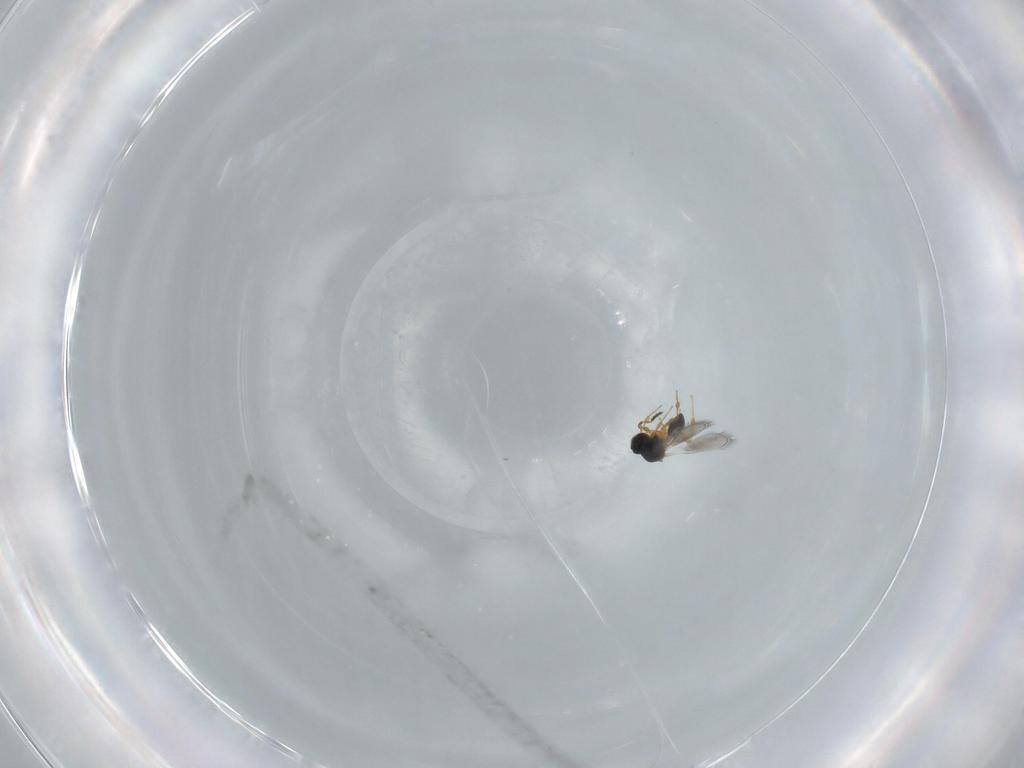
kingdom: Animalia
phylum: Arthropoda
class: Insecta
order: Hymenoptera
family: Platygastridae
